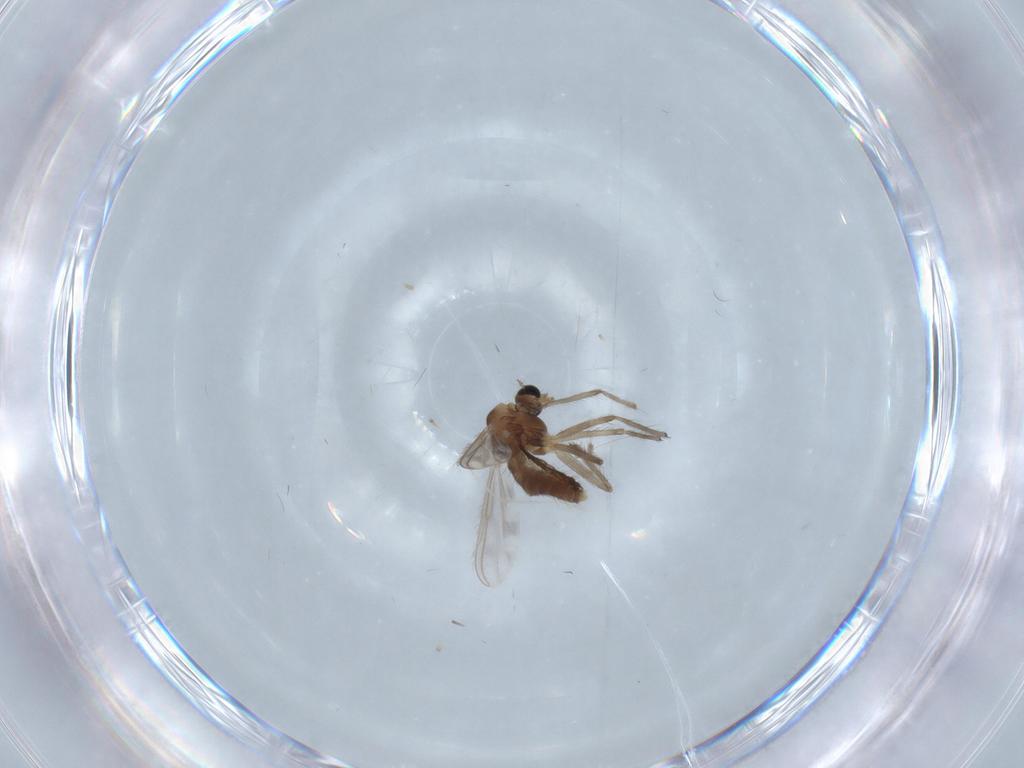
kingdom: Animalia
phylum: Arthropoda
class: Insecta
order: Diptera
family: Chironomidae
